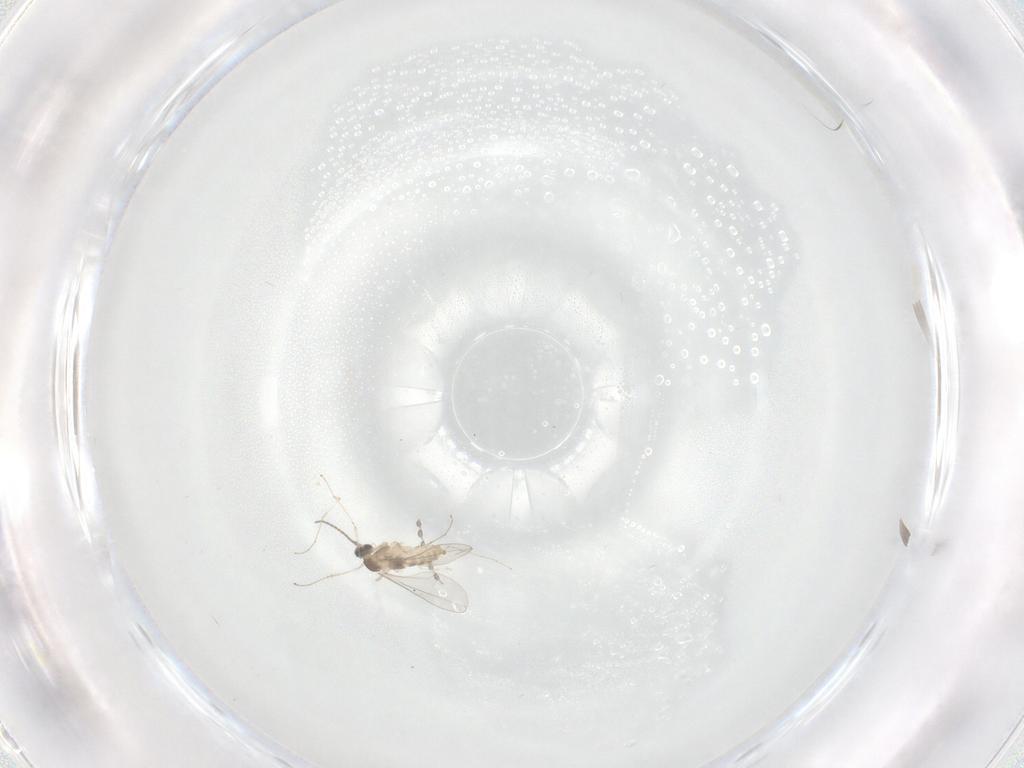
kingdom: Animalia
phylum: Arthropoda
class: Insecta
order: Diptera
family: Cecidomyiidae
